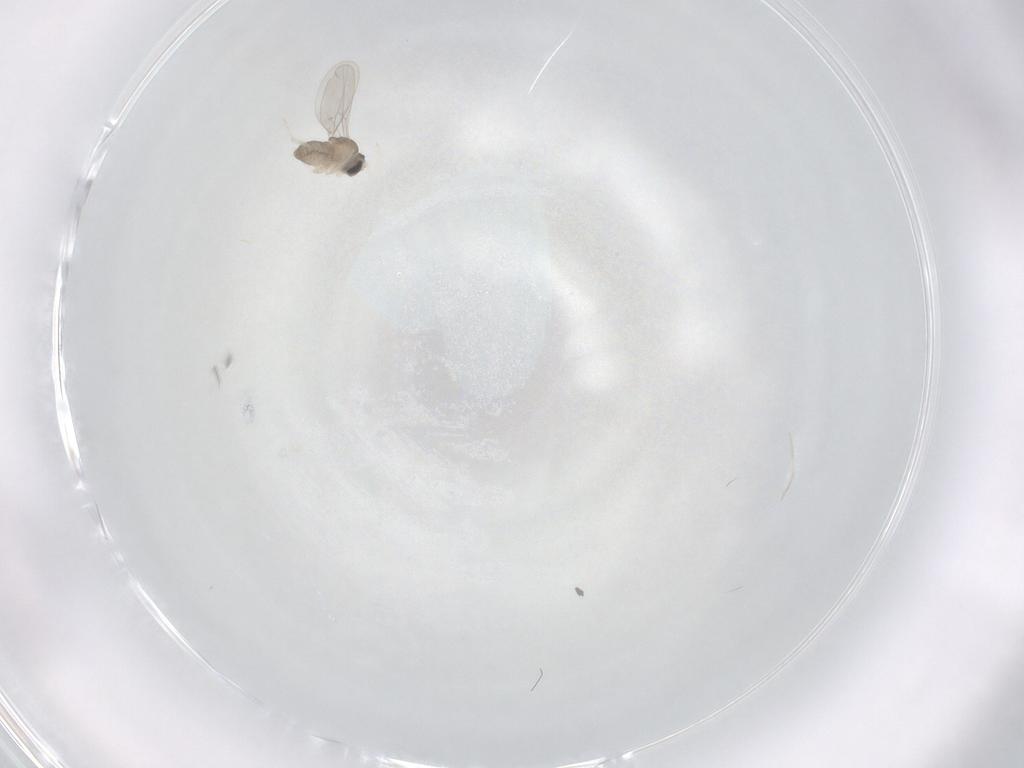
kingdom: Animalia
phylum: Arthropoda
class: Insecta
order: Diptera
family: Cecidomyiidae
